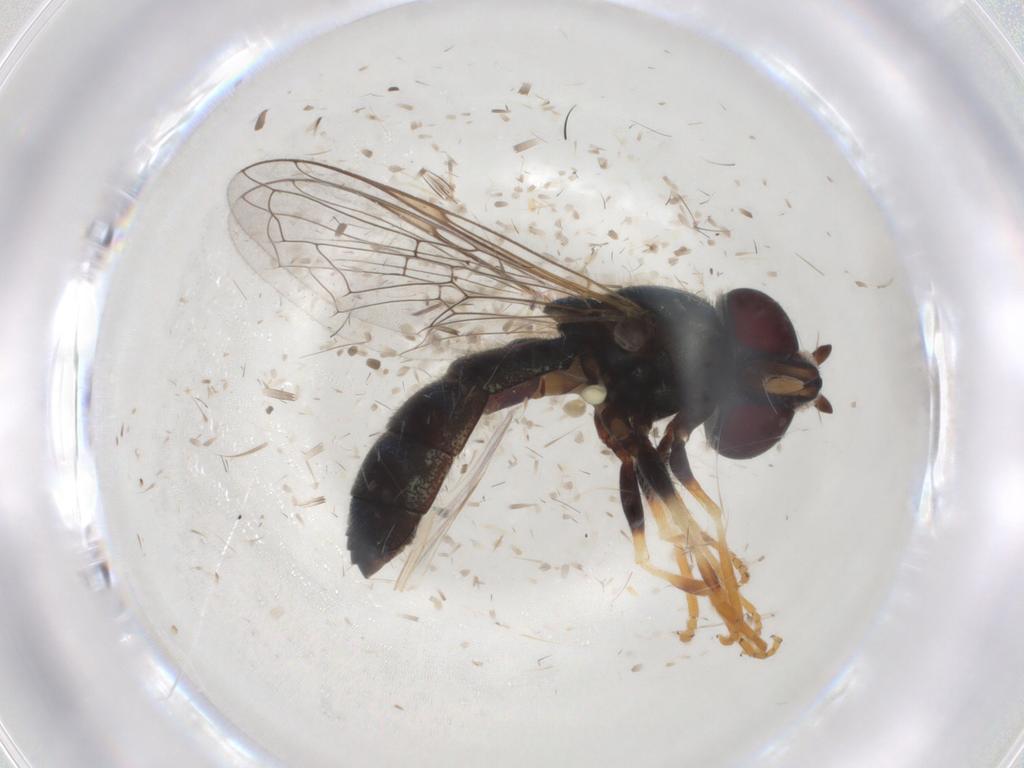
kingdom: Animalia
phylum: Arthropoda
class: Insecta
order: Diptera
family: Syrphidae
